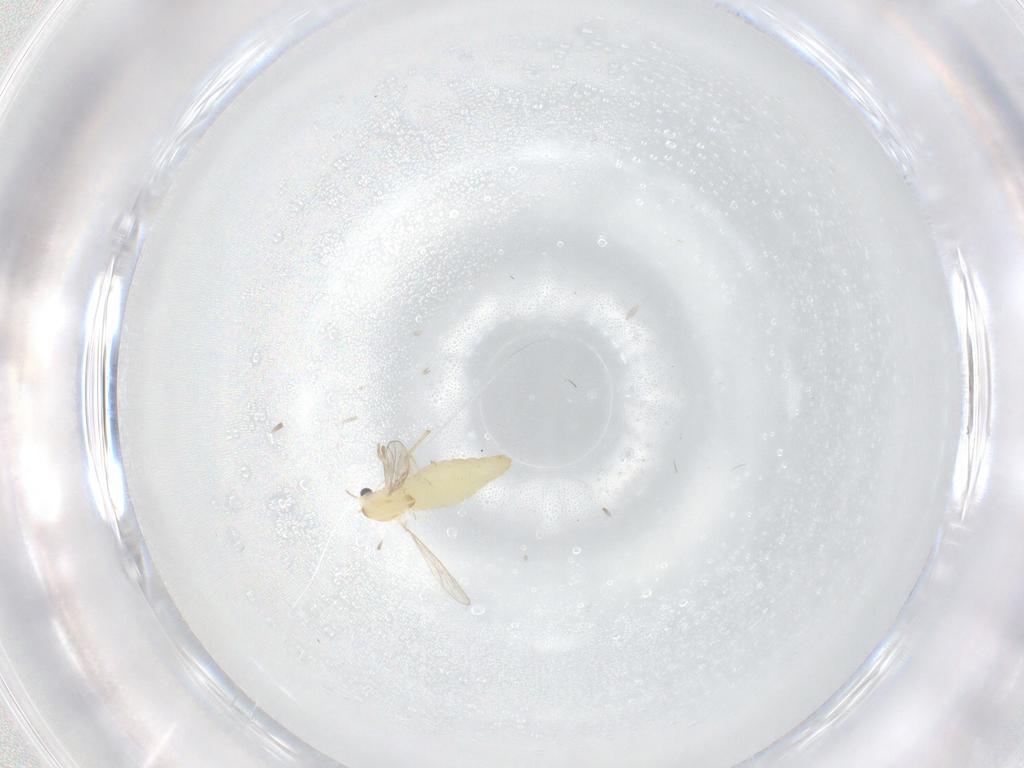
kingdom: Animalia
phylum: Arthropoda
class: Insecta
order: Diptera
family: Chironomidae
